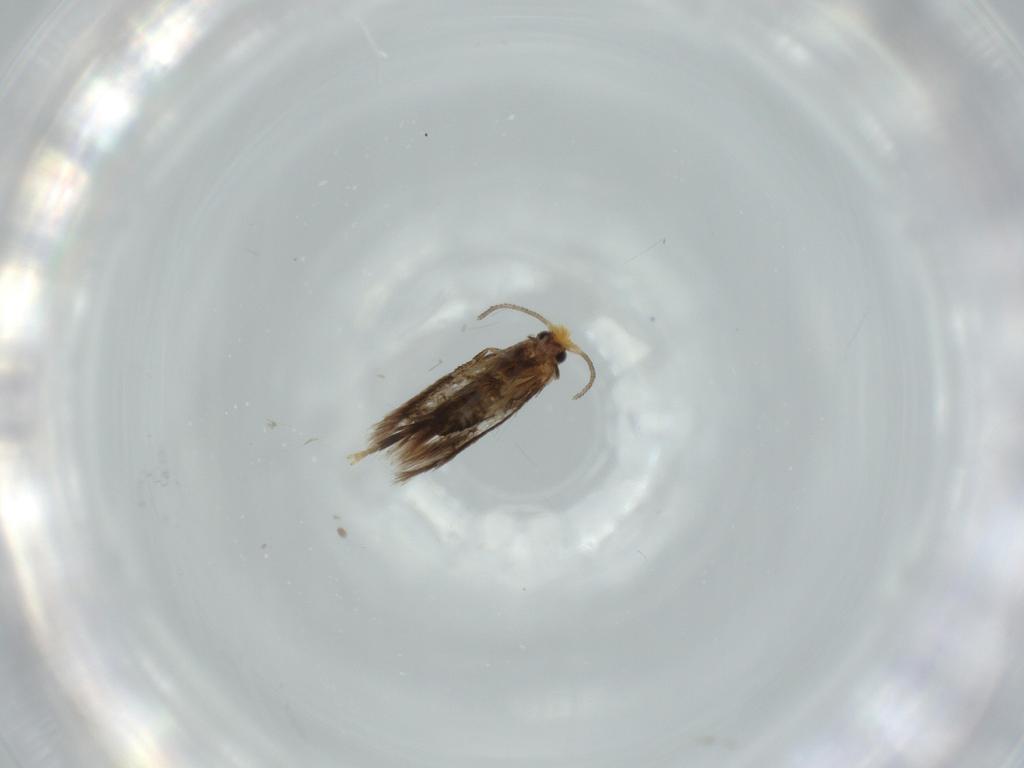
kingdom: Animalia
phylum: Arthropoda
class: Insecta
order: Lepidoptera
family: Nepticulidae
